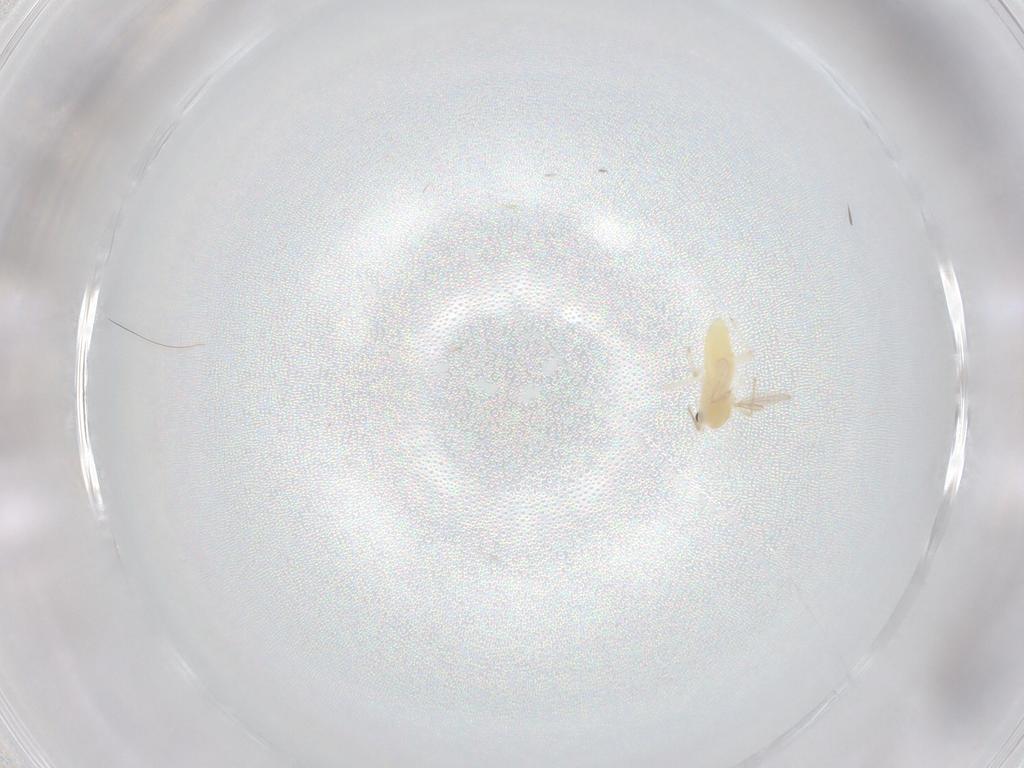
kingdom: Animalia
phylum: Arthropoda
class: Insecta
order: Diptera
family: Chironomidae
